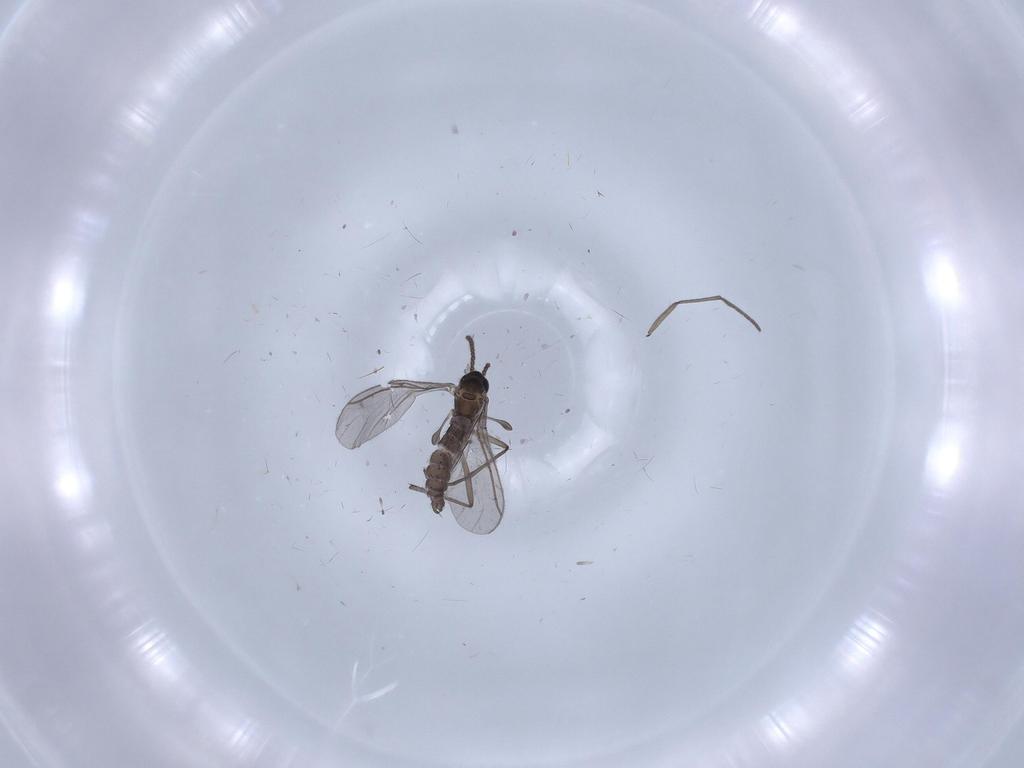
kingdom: Animalia
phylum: Arthropoda
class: Insecta
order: Diptera
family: Sciaridae
